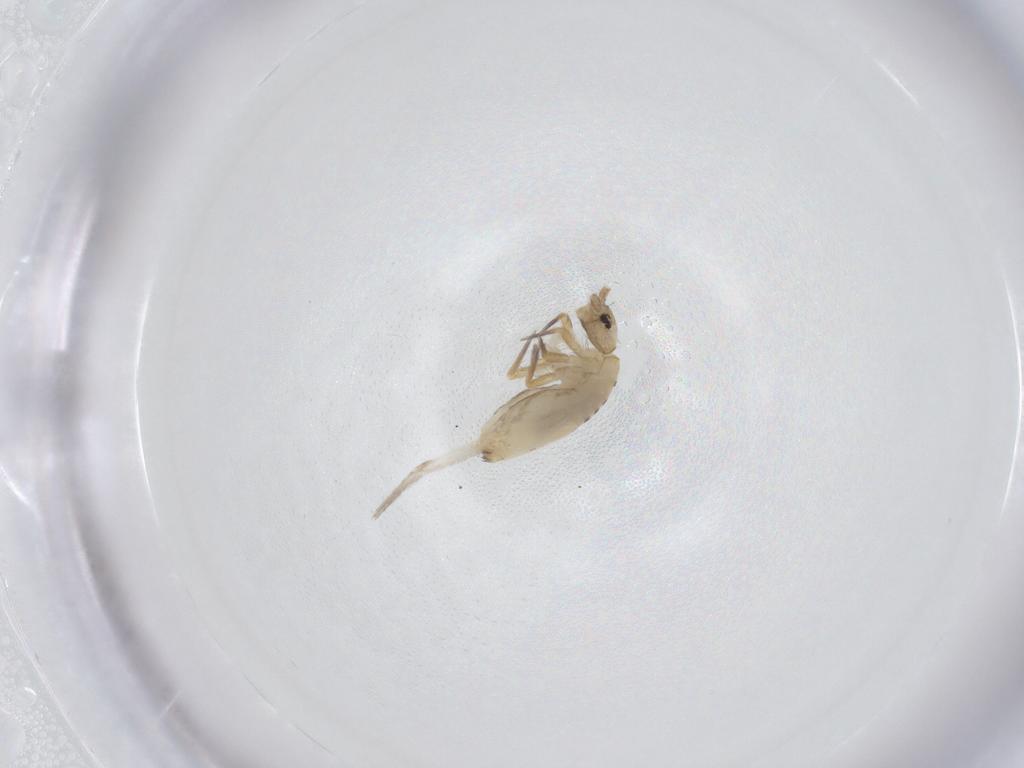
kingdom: Animalia
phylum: Arthropoda
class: Collembola
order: Entomobryomorpha
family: Entomobryidae
